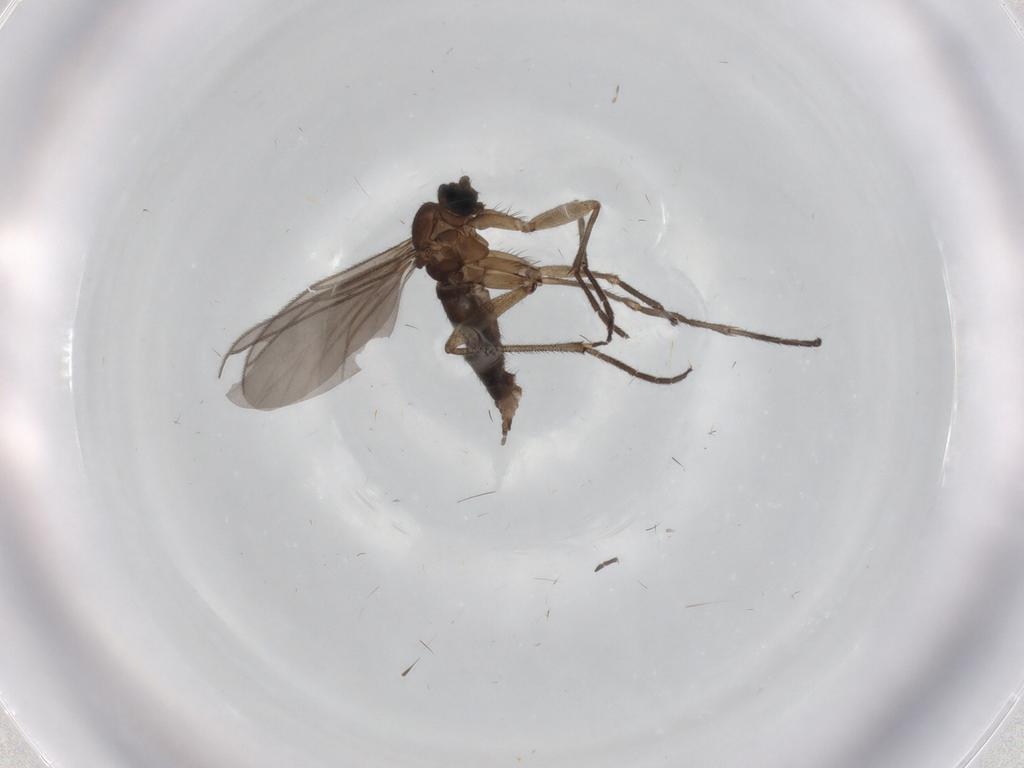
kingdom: Animalia
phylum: Arthropoda
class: Insecta
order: Diptera
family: Sciaridae
